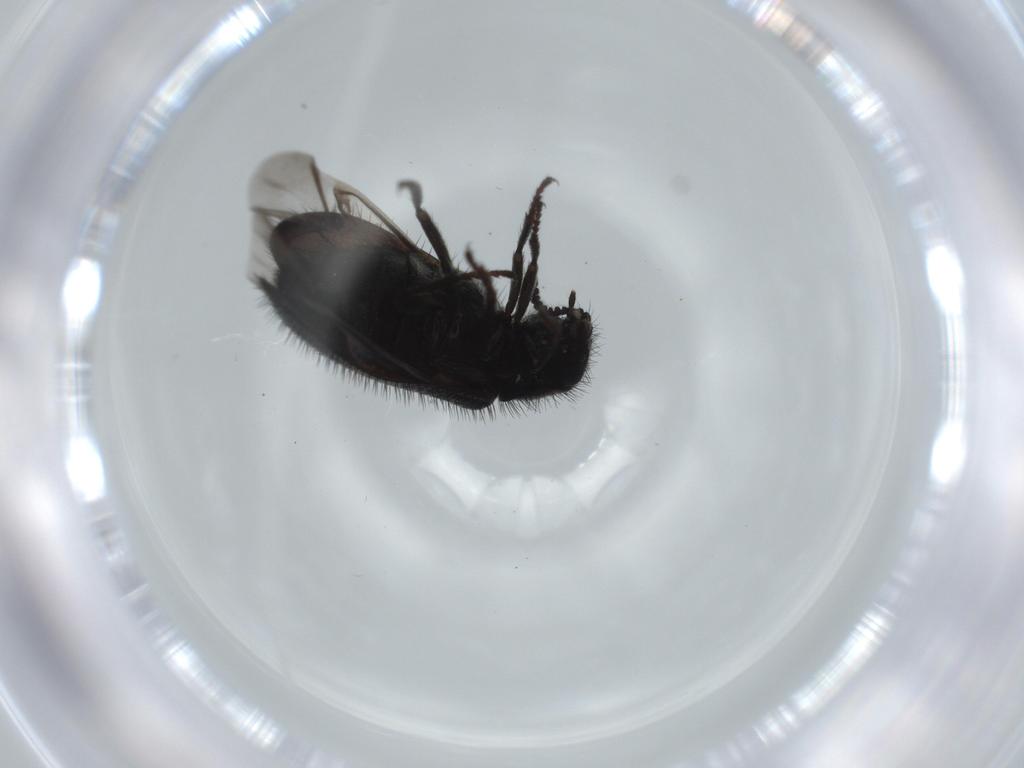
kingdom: Animalia
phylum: Arthropoda
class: Insecta
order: Coleoptera
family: Melyridae
